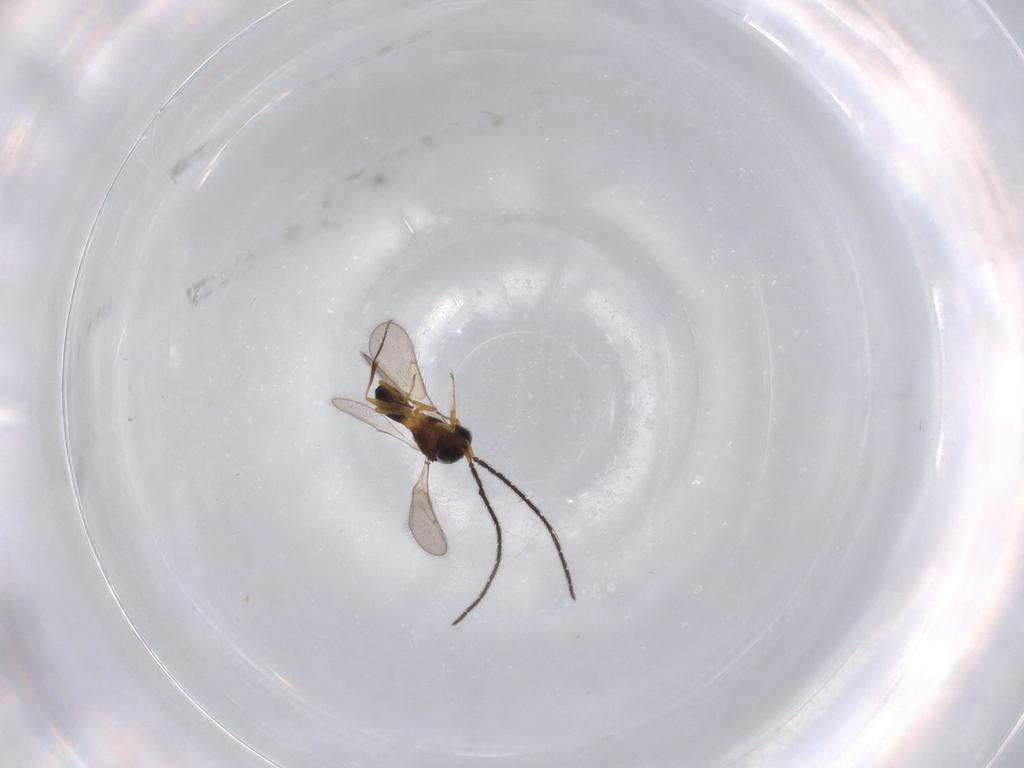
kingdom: Animalia
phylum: Arthropoda
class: Insecta
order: Hymenoptera
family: Scelionidae
